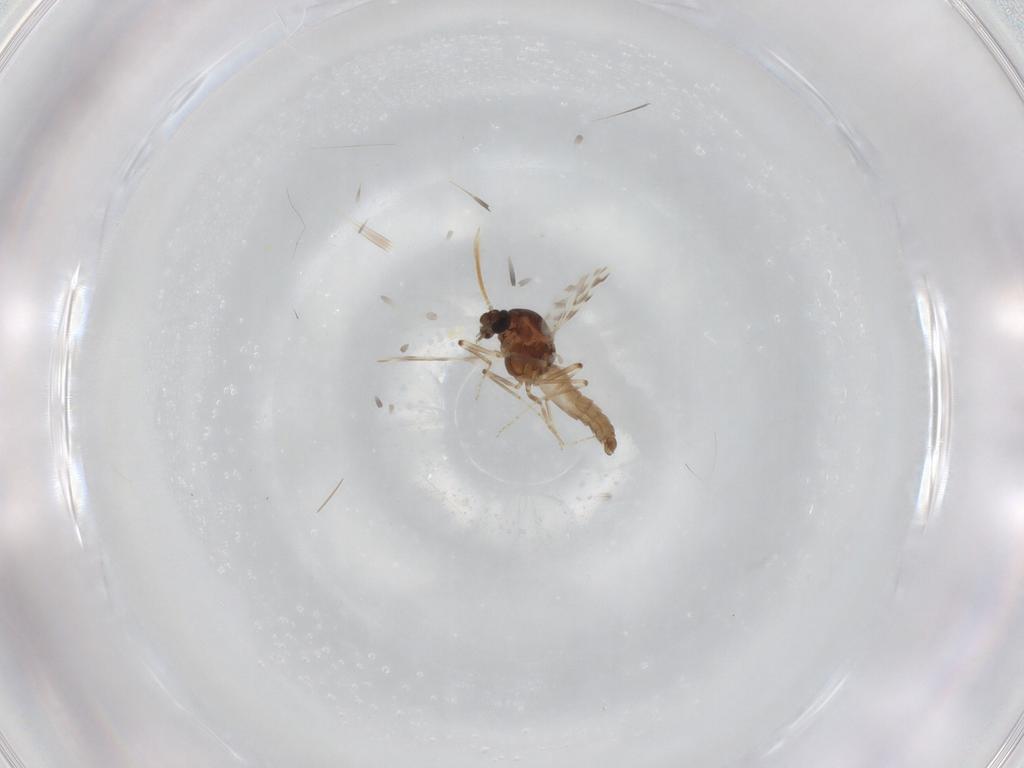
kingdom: Animalia
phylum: Arthropoda
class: Insecta
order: Diptera
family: Cecidomyiidae
